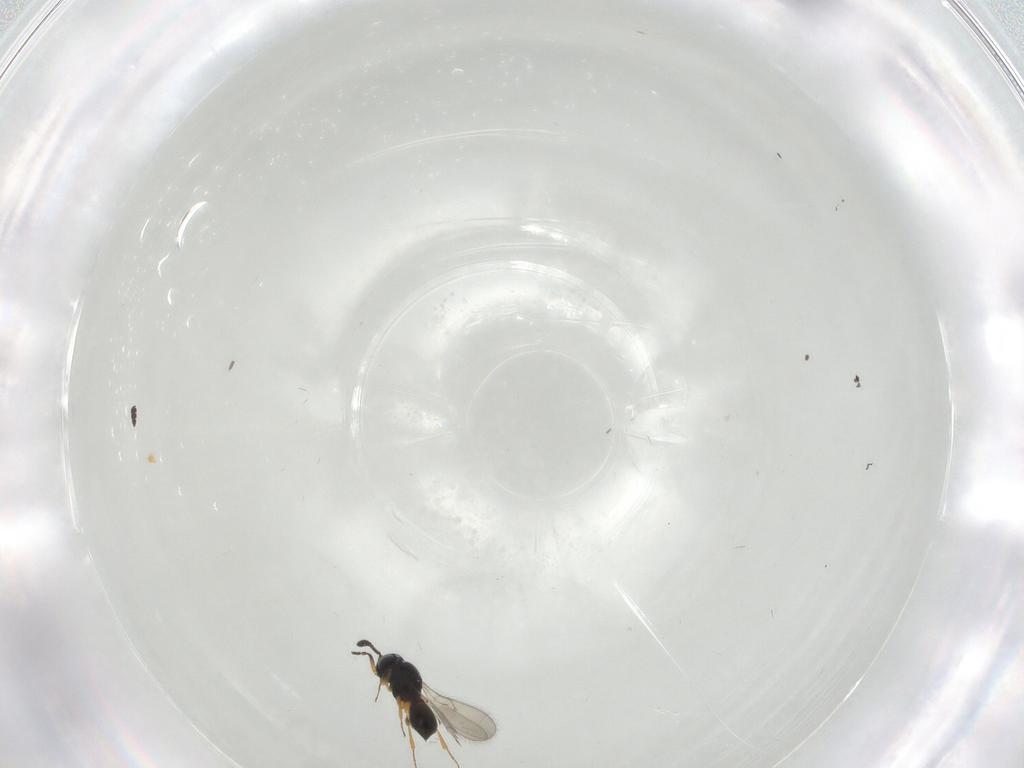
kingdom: Animalia
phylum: Arthropoda
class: Insecta
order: Hymenoptera
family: Scelionidae
